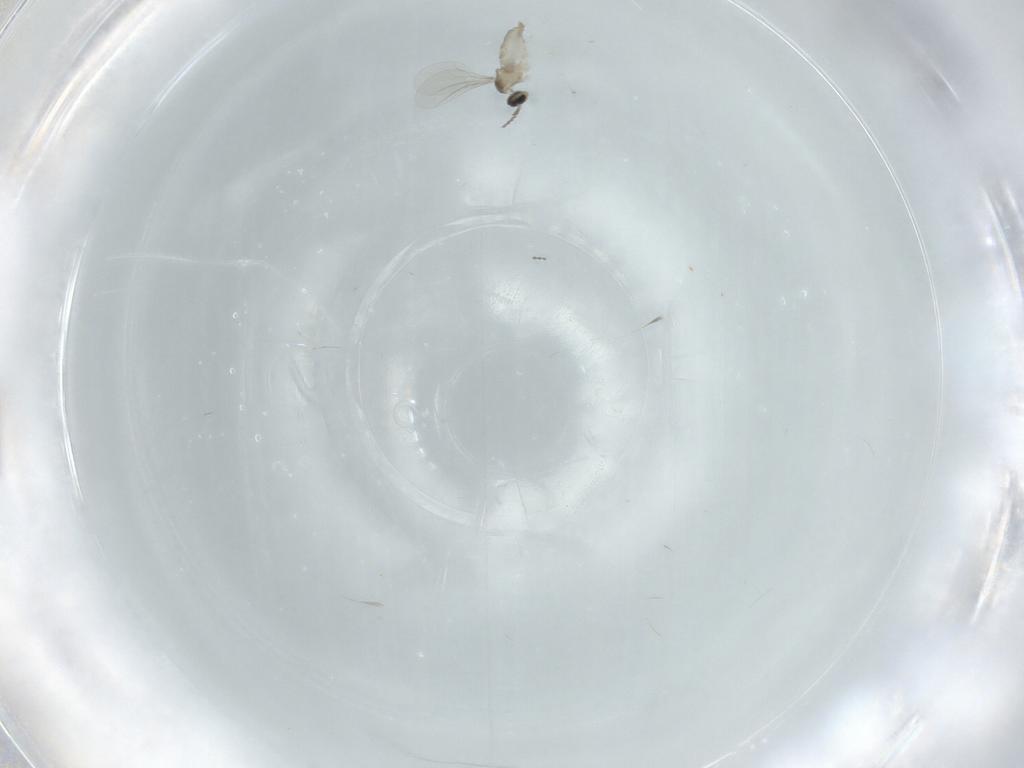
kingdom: Animalia
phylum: Arthropoda
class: Insecta
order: Diptera
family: Cecidomyiidae
